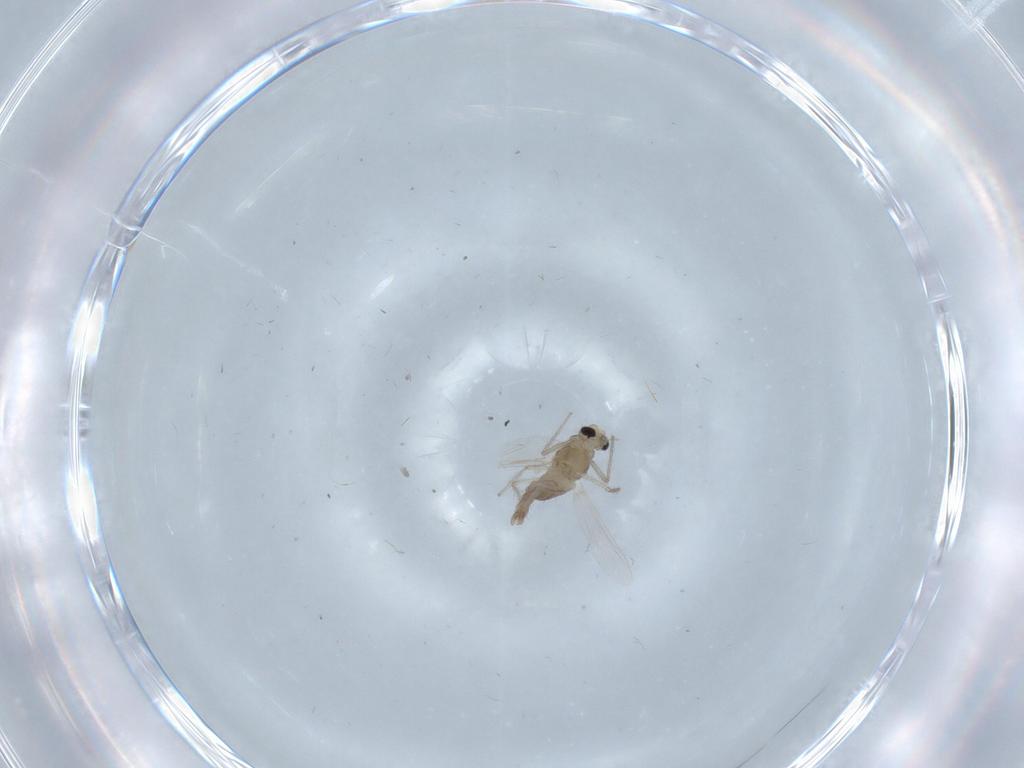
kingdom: Animalia
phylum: Arthropoda
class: Insecta
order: Diptera
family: Chironomidae
